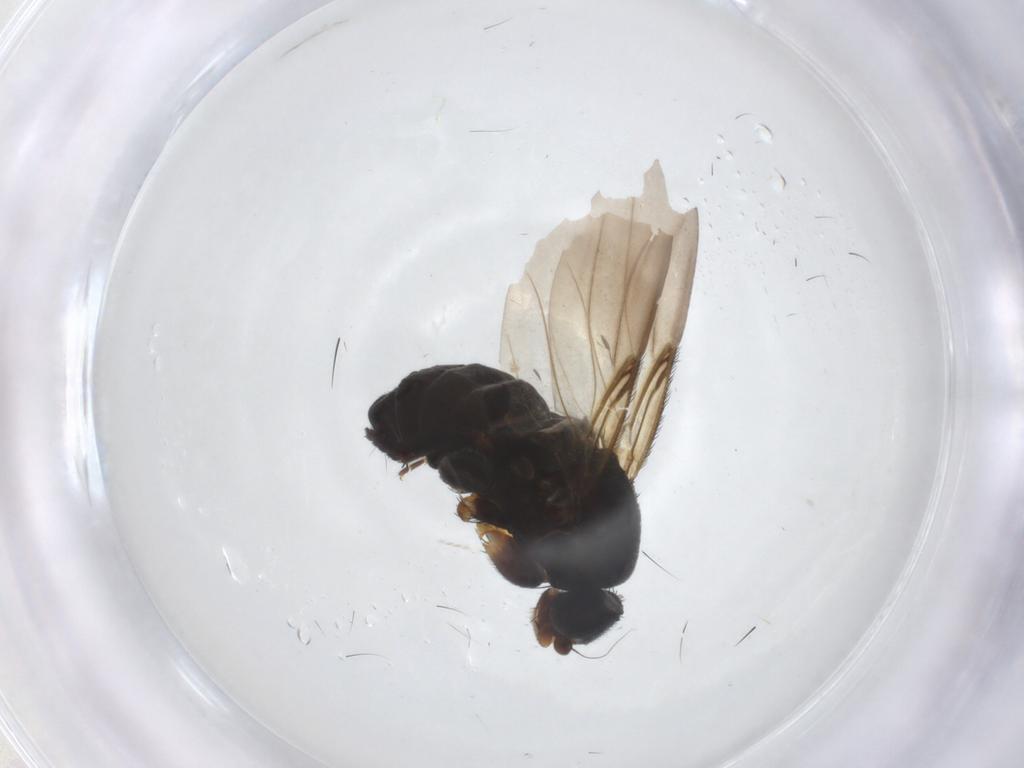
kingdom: Animalia
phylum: Arthropoda
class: Insecta
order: Diptera
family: Phoridae
